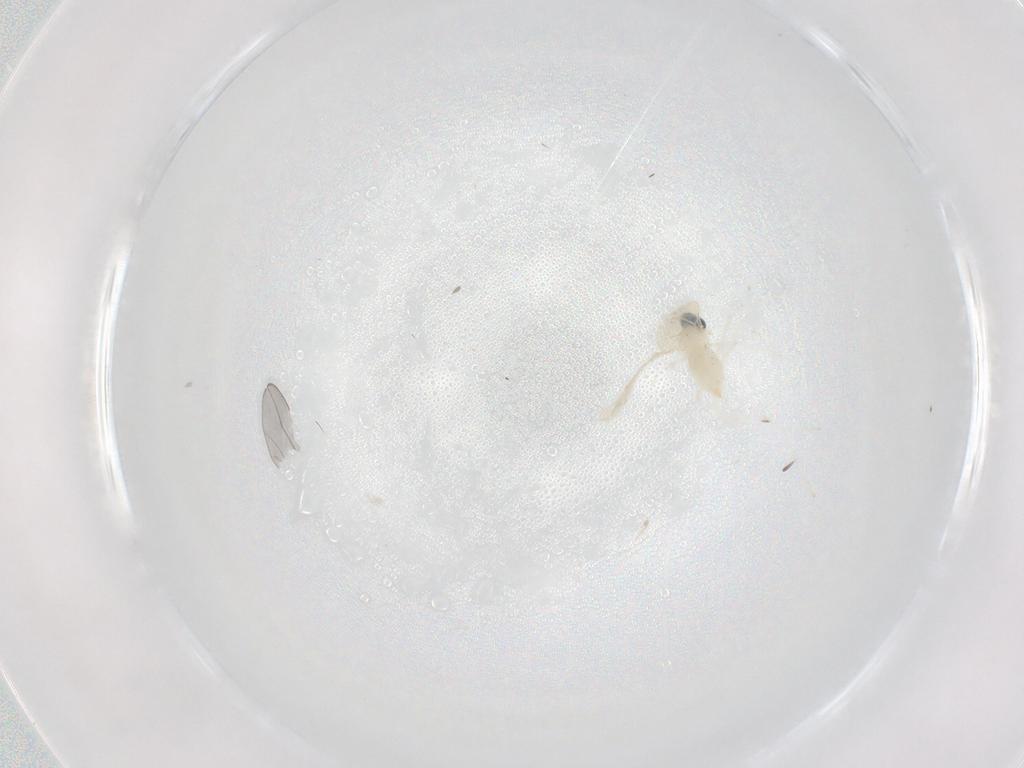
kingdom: Animalia
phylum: Arthropoda
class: Insecta
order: Diptera
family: Cecidomyiidae
